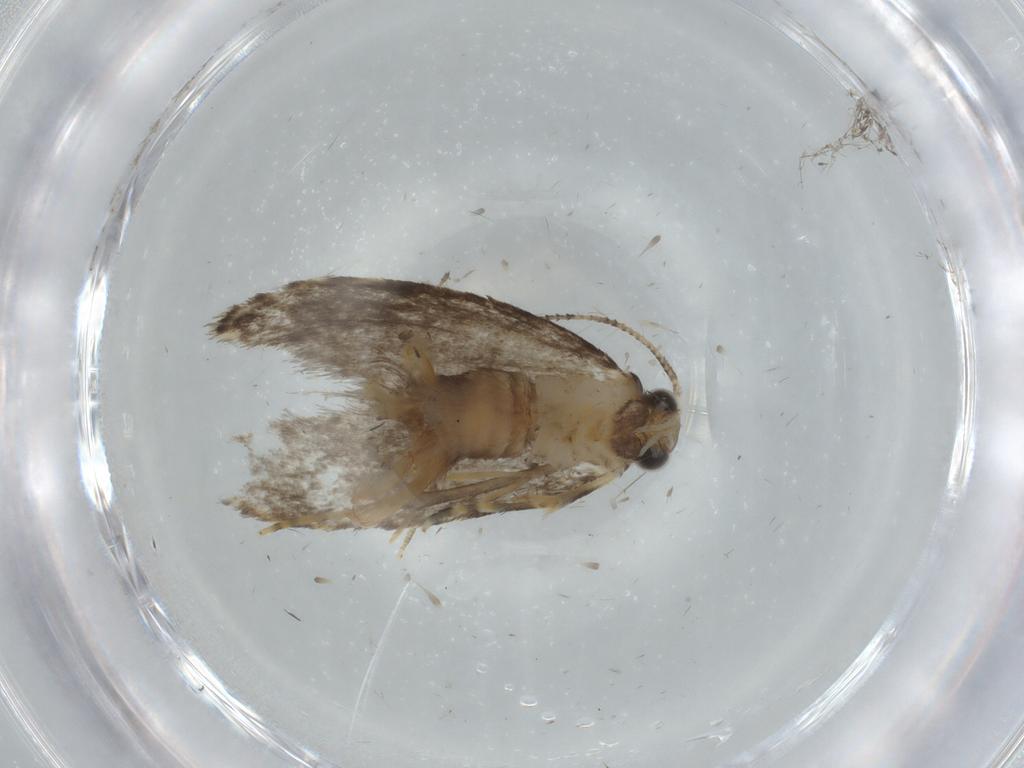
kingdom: Animalia
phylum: Arthropoda
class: Insecta
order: Lepidoptera
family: Tineidae
